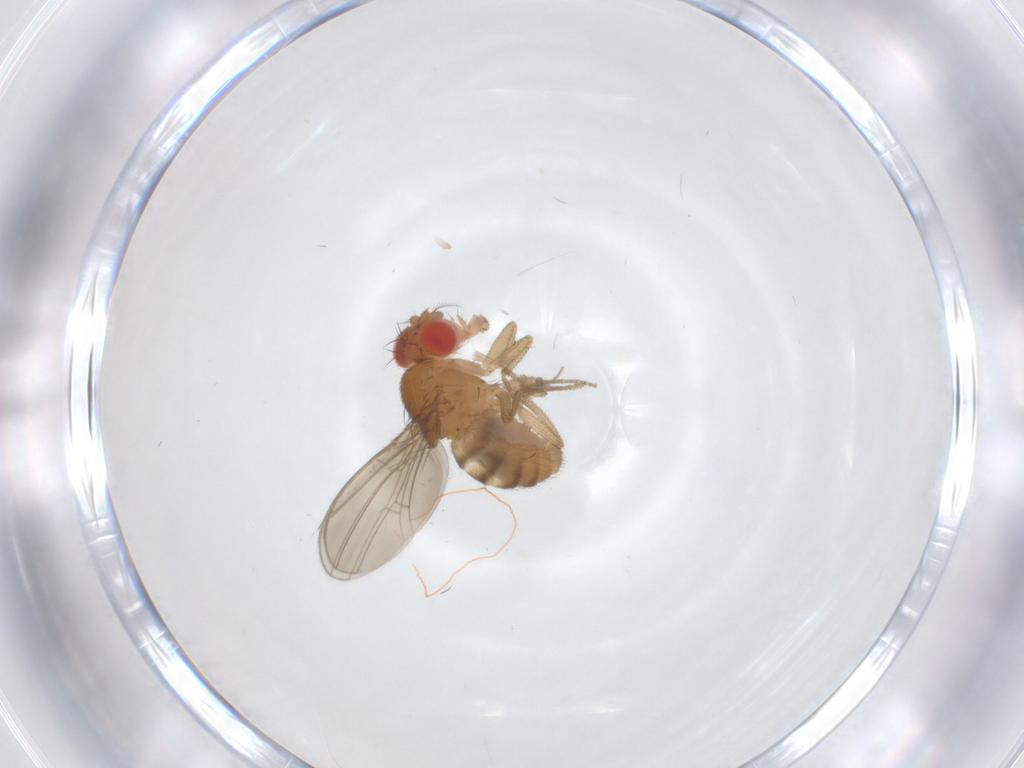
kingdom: Animalia
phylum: Arthropoda
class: Insecta
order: Diptera
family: Drosophilidae
